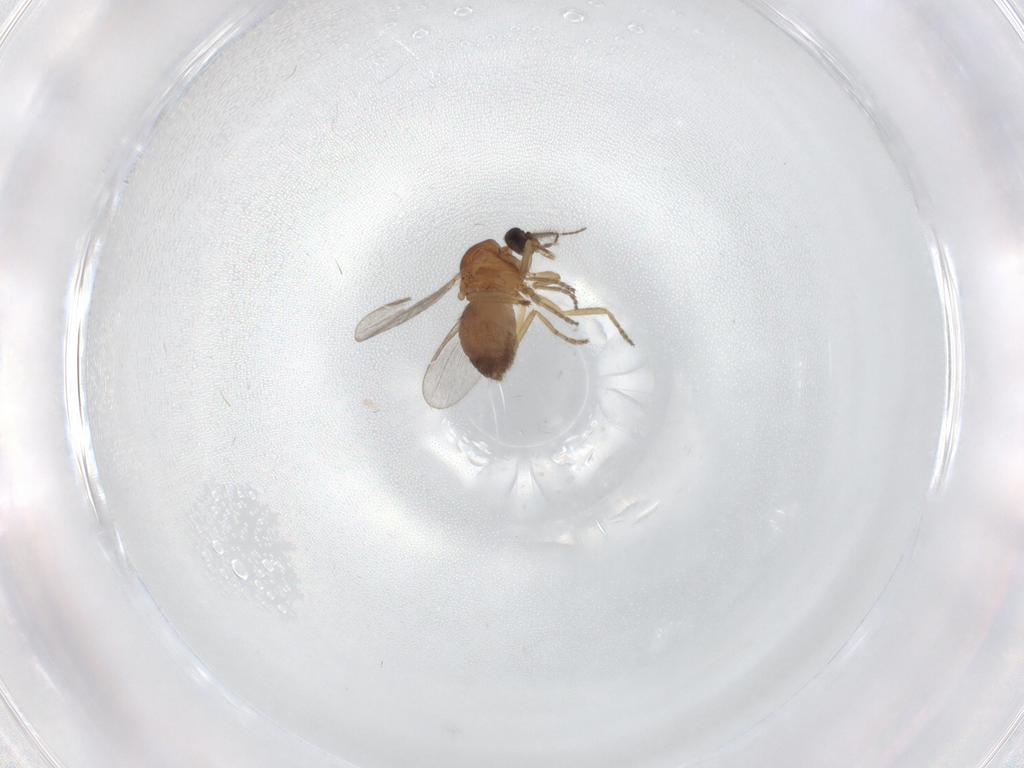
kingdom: Animalia
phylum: Arthropoda
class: Insecta
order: Diptera
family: Ceratopogonidae
